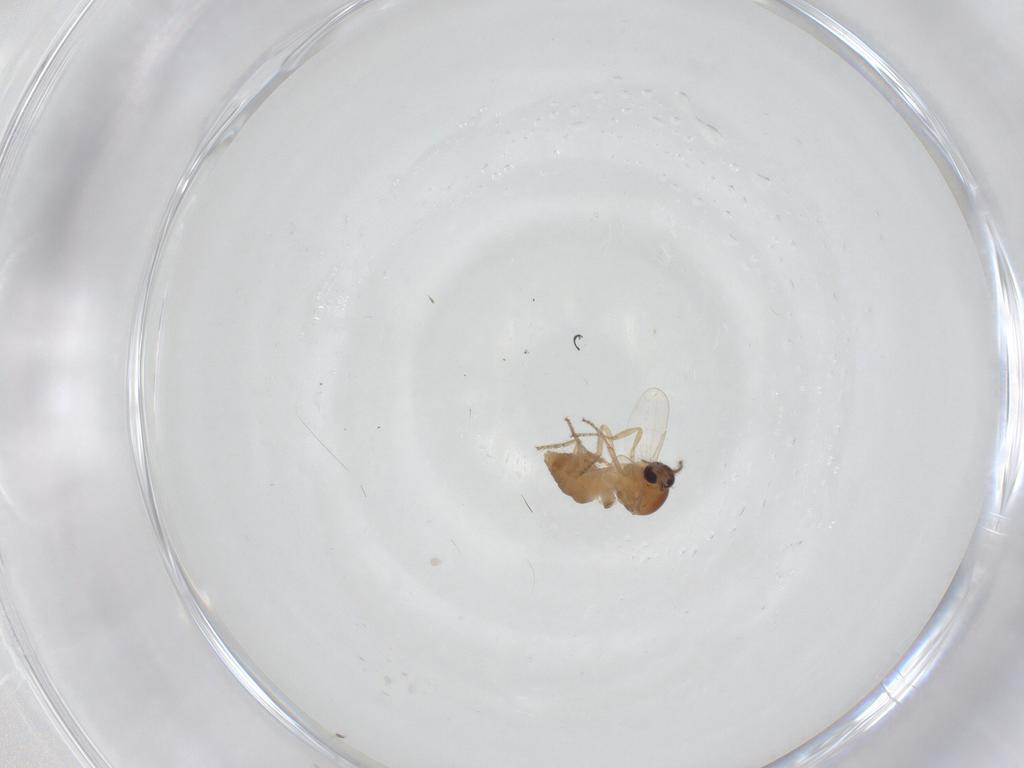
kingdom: Animalia
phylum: Arthropoda
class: Insecta
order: Diptera
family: Ceratopogonidae
